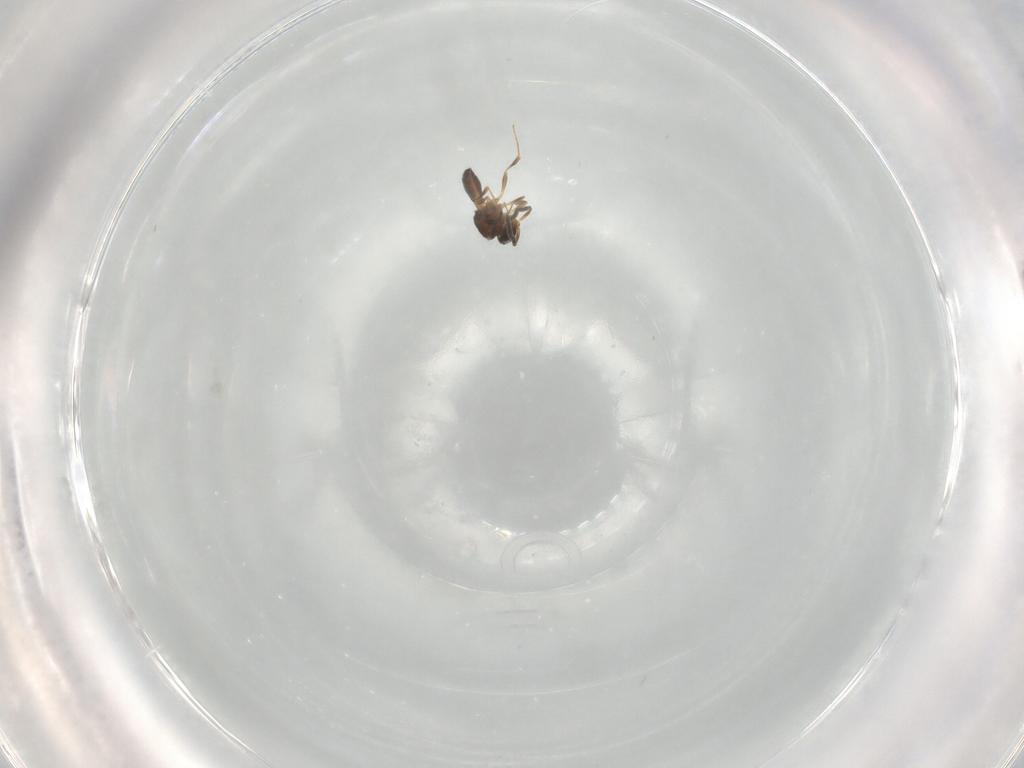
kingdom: Animalia
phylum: Arthropoda
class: Insecta
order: Hymenoptera
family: Scelionidae
